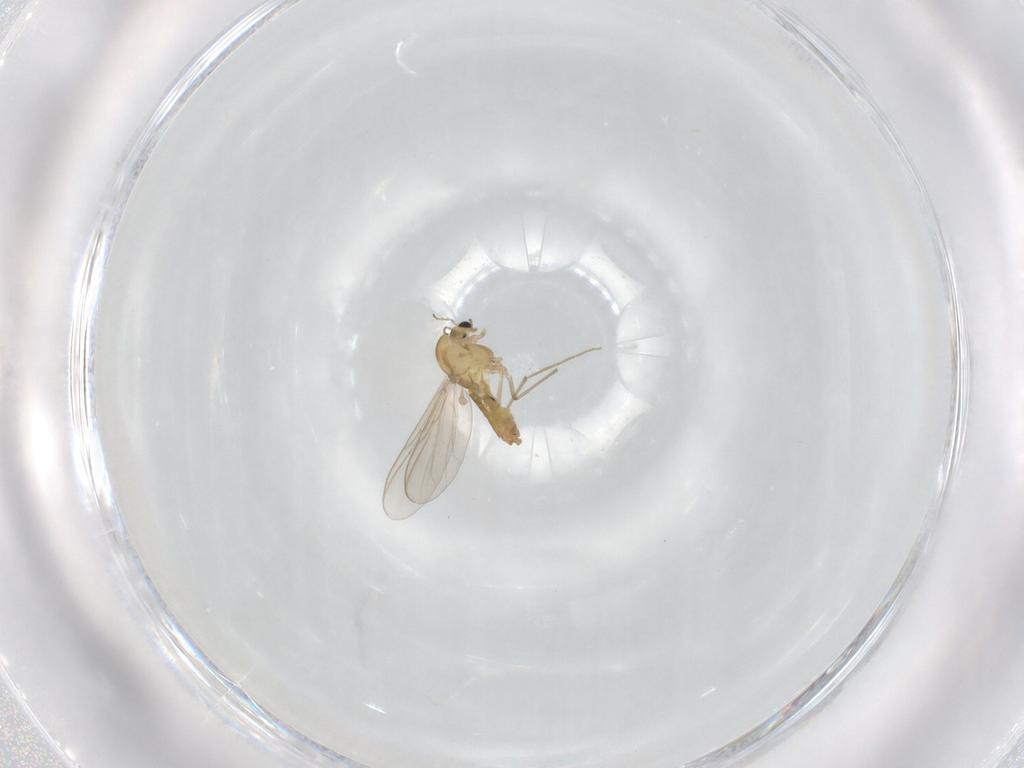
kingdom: Animalia
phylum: Arthropoda
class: Insecta
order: Diptera
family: Chironomidae
